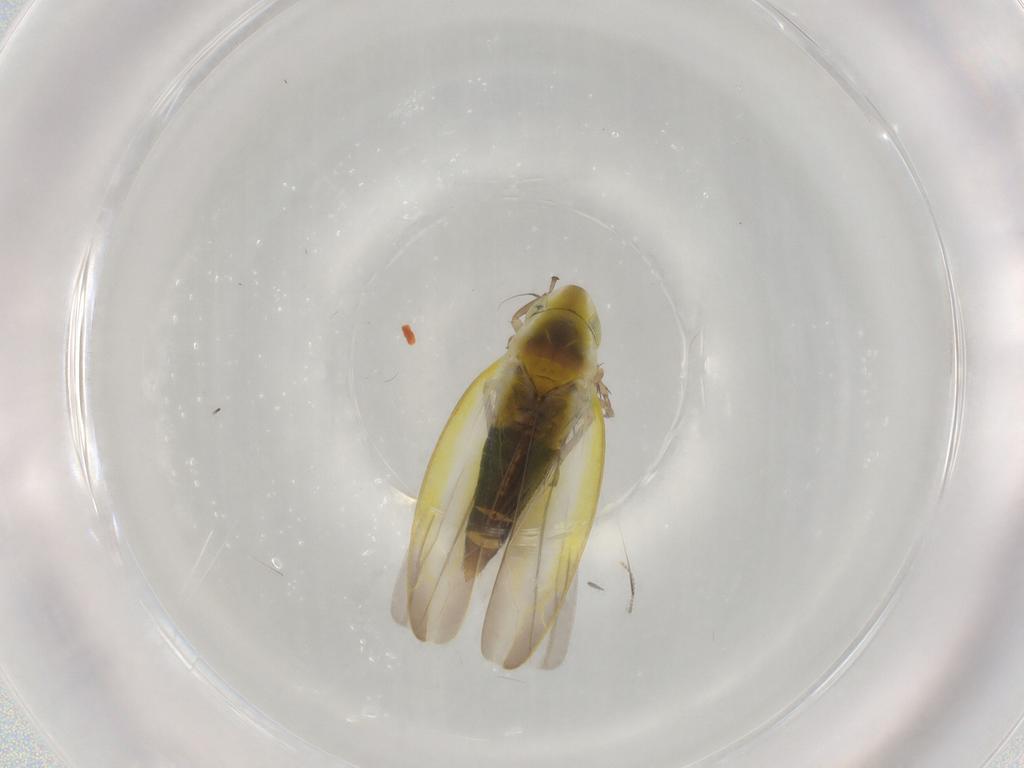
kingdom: Animalia
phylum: Arthropoda
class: Insecta
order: Hemiptera
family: Cicadellidae
